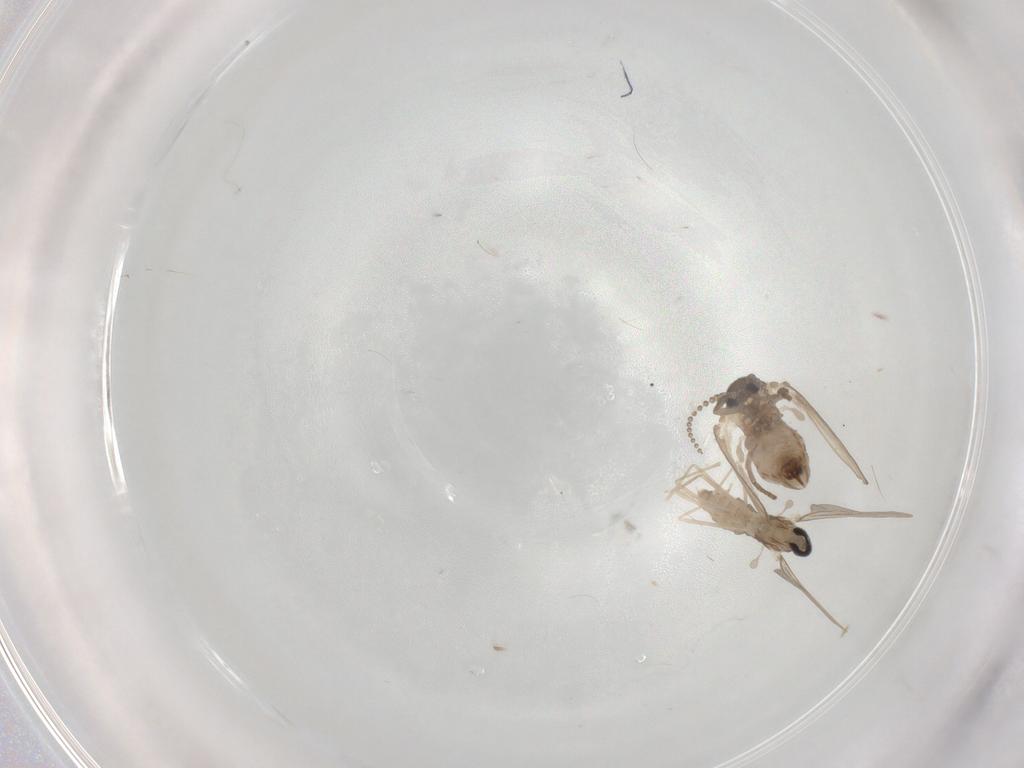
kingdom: Animalia
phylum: Arthropoda
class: Insecta
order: Diptera
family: Psychodidae
